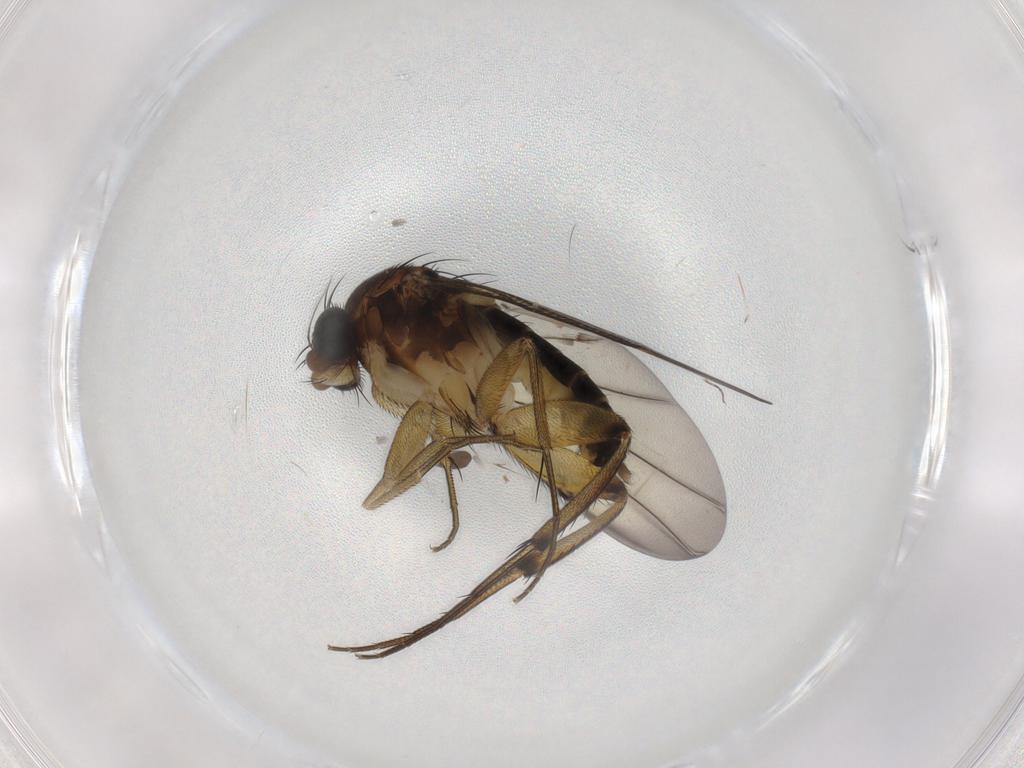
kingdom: Animalia
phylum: Arthropoda
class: Insecta
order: Diptera
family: Phoridae
